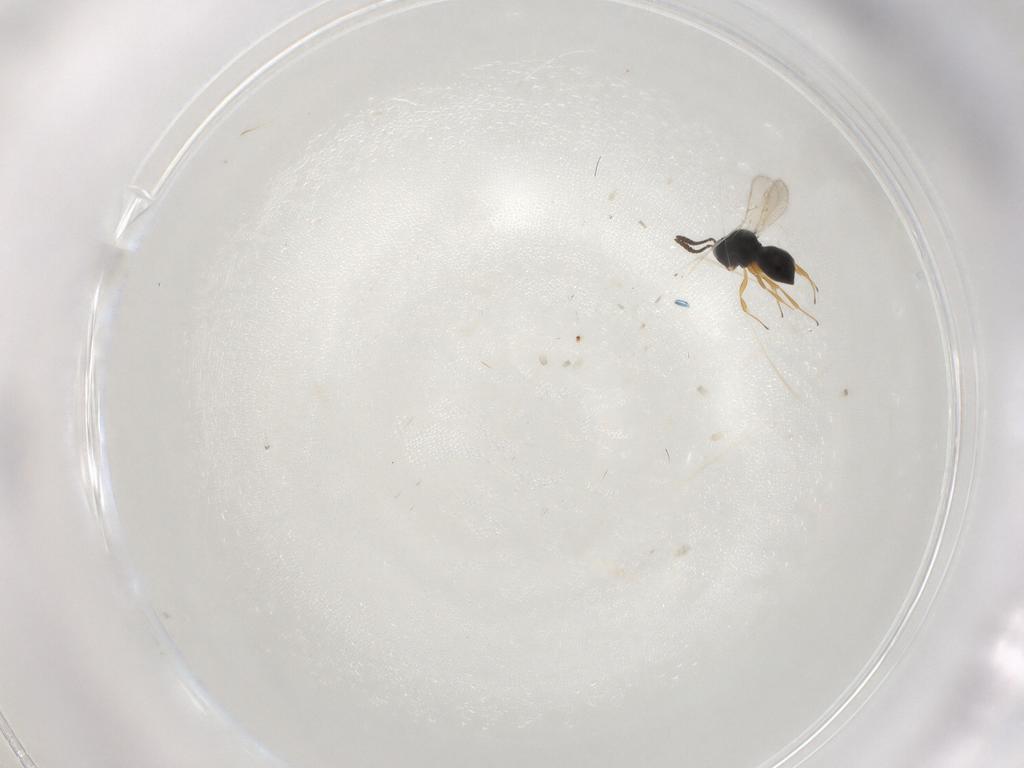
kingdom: Animalia
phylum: Arthropoda
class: Insecta
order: Hymenoptera
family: Scelionidae
